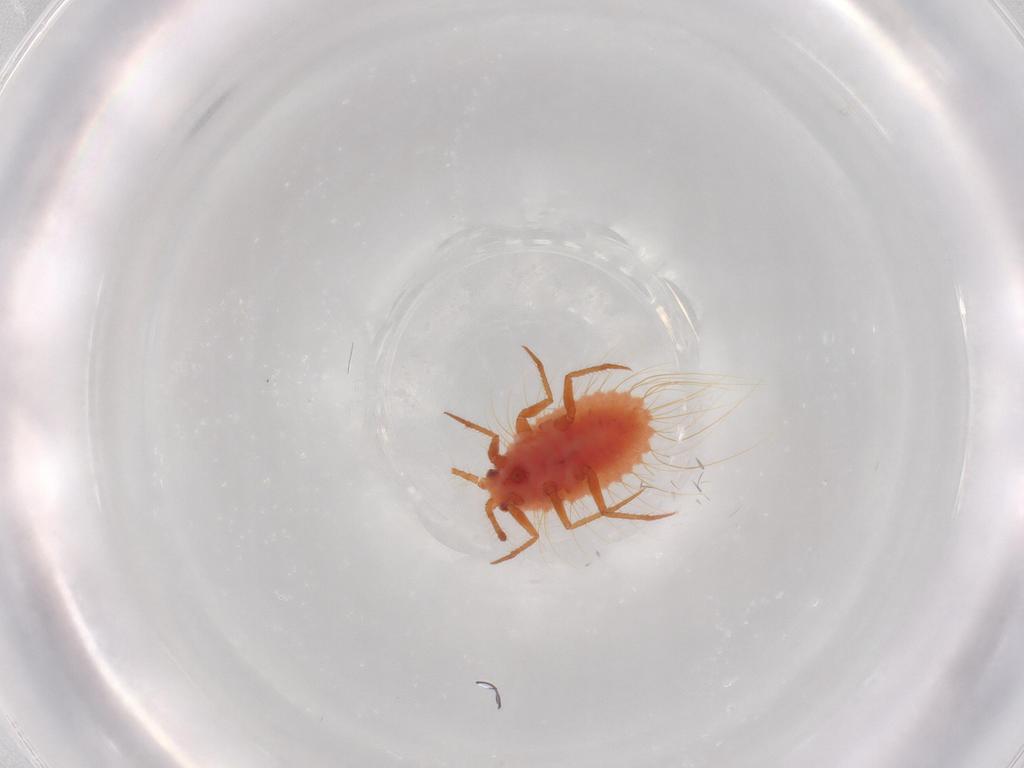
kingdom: Animalia
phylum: Arthropoda
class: Insecta
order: Hemiptera
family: Monophlebidae
